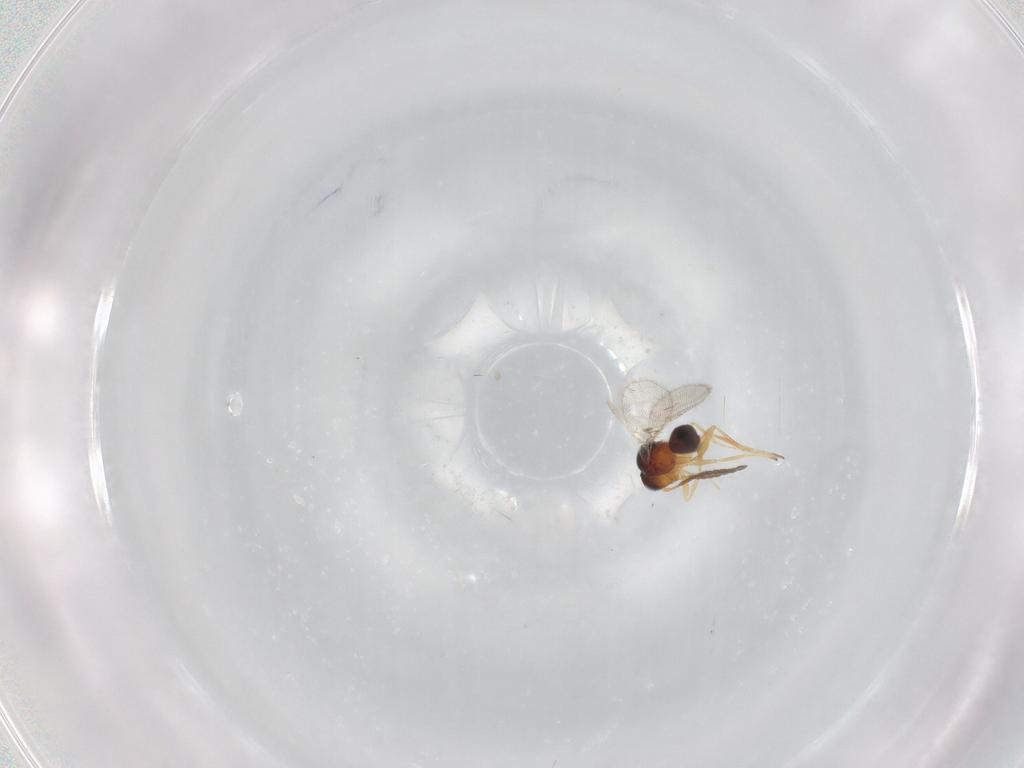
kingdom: Animalia
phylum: Arthropoda
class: Insecta
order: Hymenoptera
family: Figitidae
